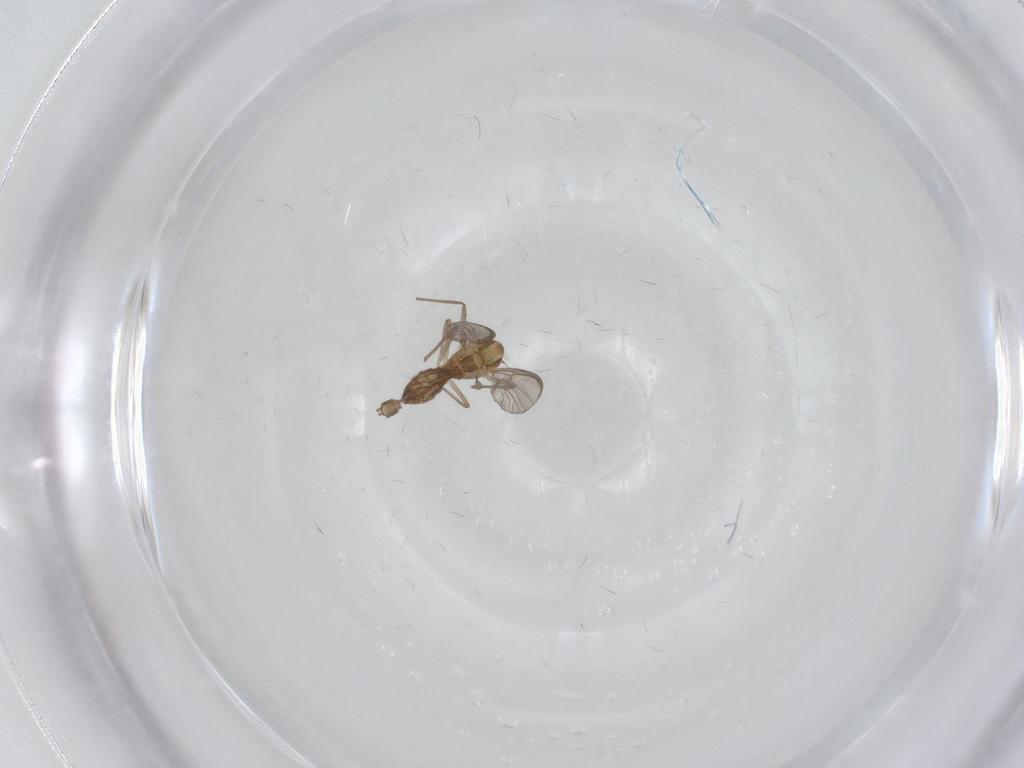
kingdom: Animalia
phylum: Arthropoda
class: Insecta
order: Diptera
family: Chironomidae
